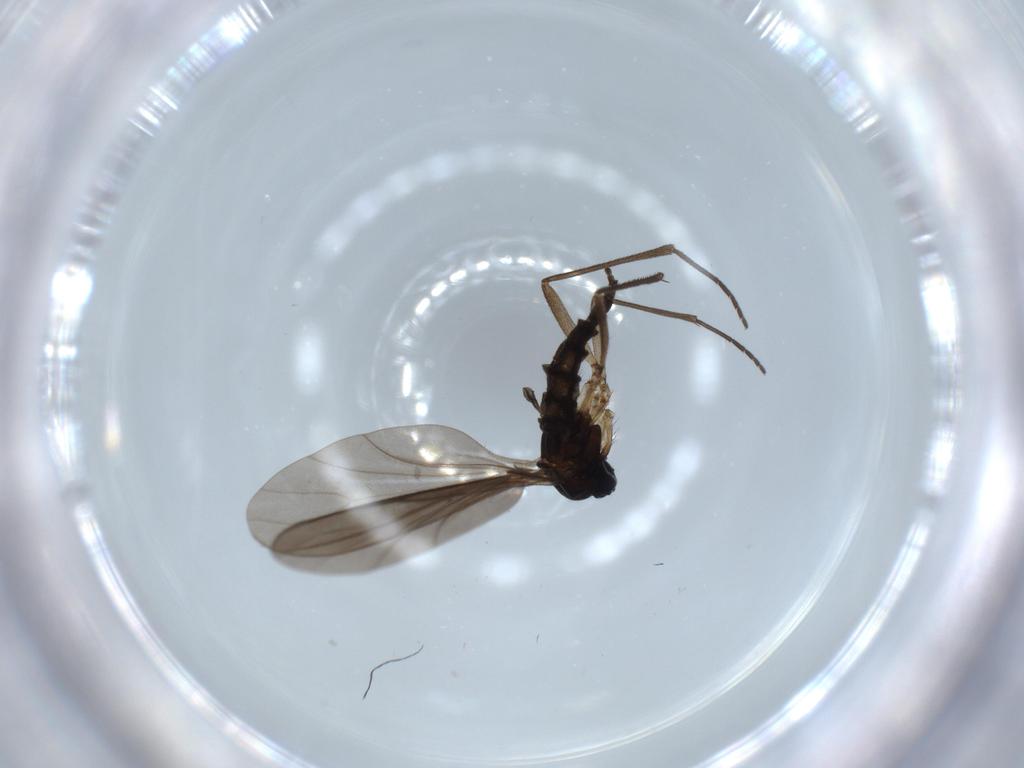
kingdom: Animalia
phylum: Arthropoda
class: Insecta
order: Diptera
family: Sciaridae
